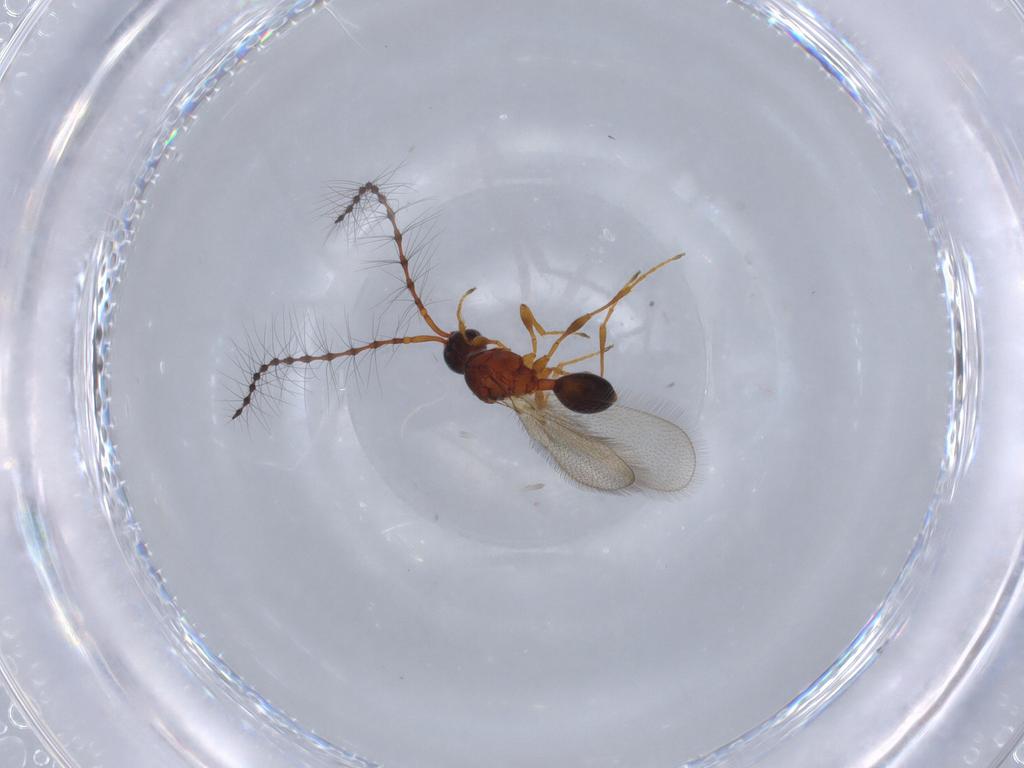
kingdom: Animalia
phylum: Arthropoda
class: Insecta
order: Hymenoptera
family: Diapriidae
